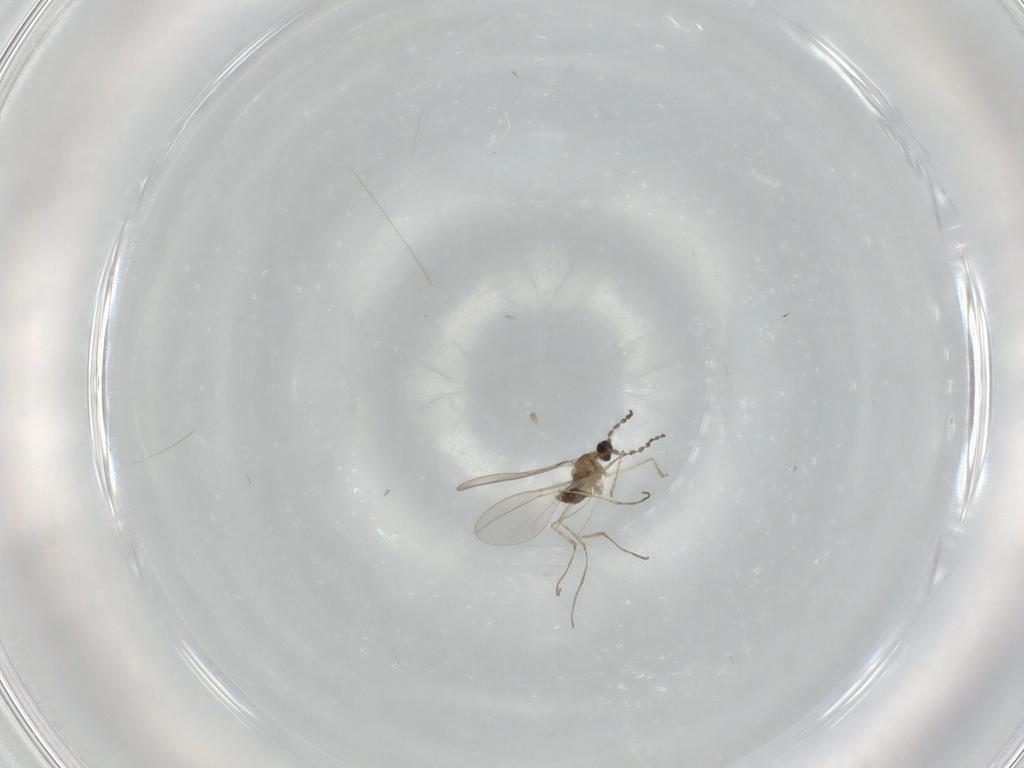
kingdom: Animalia
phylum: Arthropoda
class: Insecta
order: Diptera
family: Cecidomyiidae
